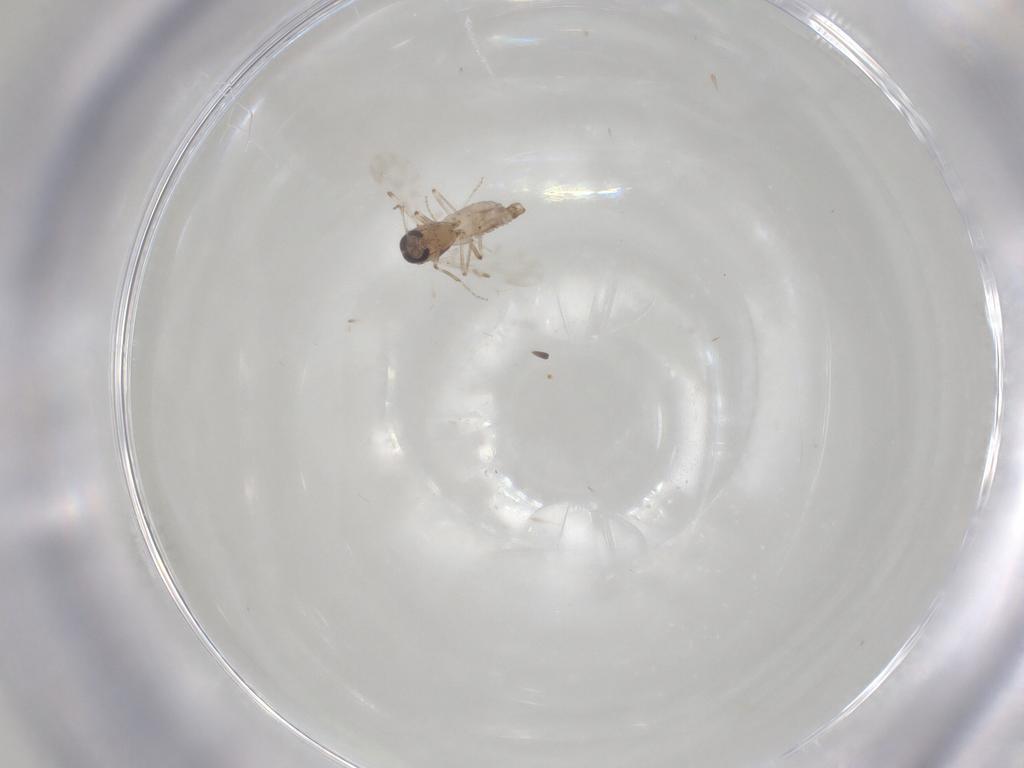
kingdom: Animalia
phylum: Arthropoda
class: Insecta
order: Diptera
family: Ceratopogonidae
